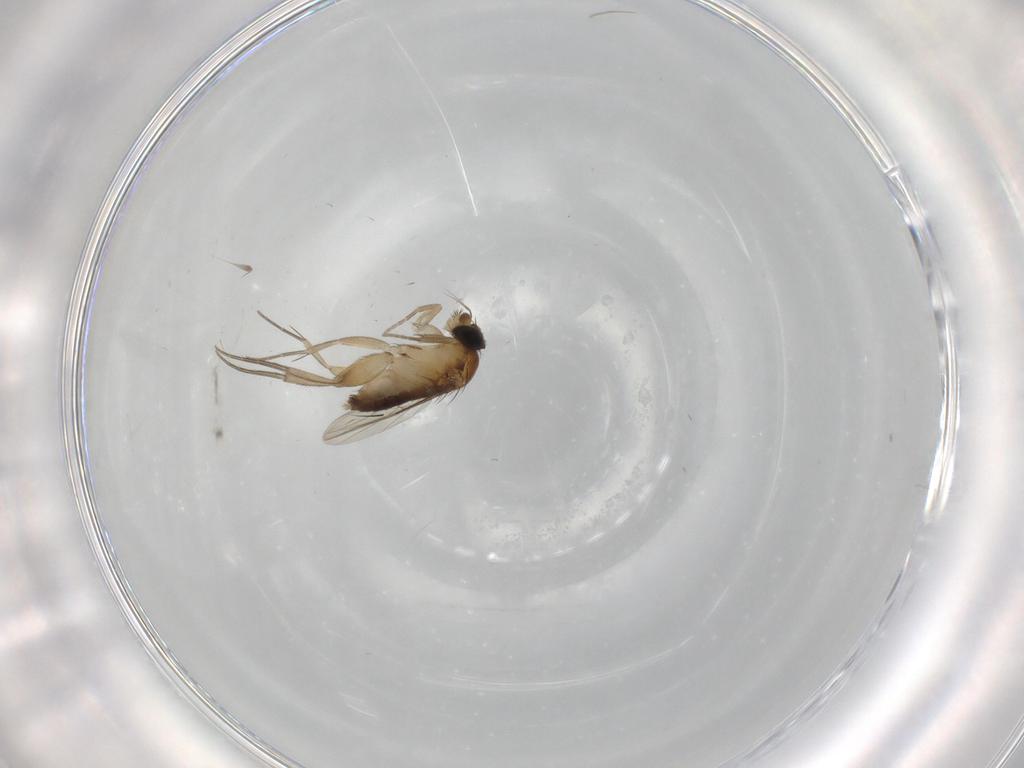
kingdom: Animalia
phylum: Arthropoda
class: Insecta
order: Diptera
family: Phoridae
